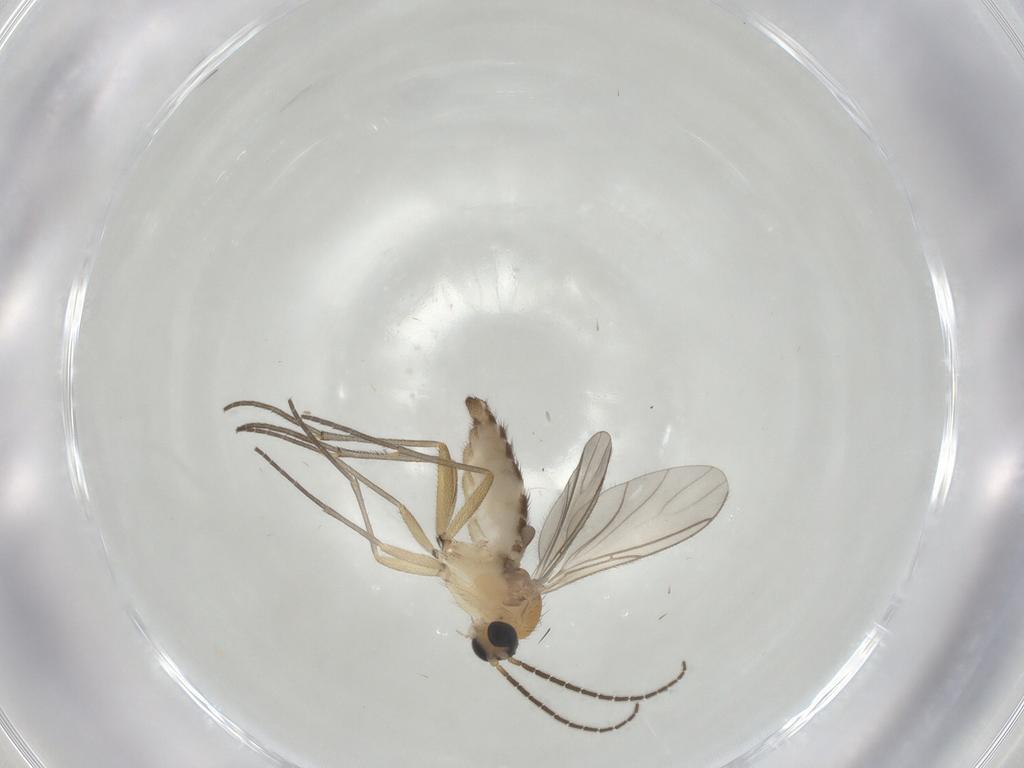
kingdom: Animalia
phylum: Arthropoda
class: Insecta
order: Diptera
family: Sciaridae
